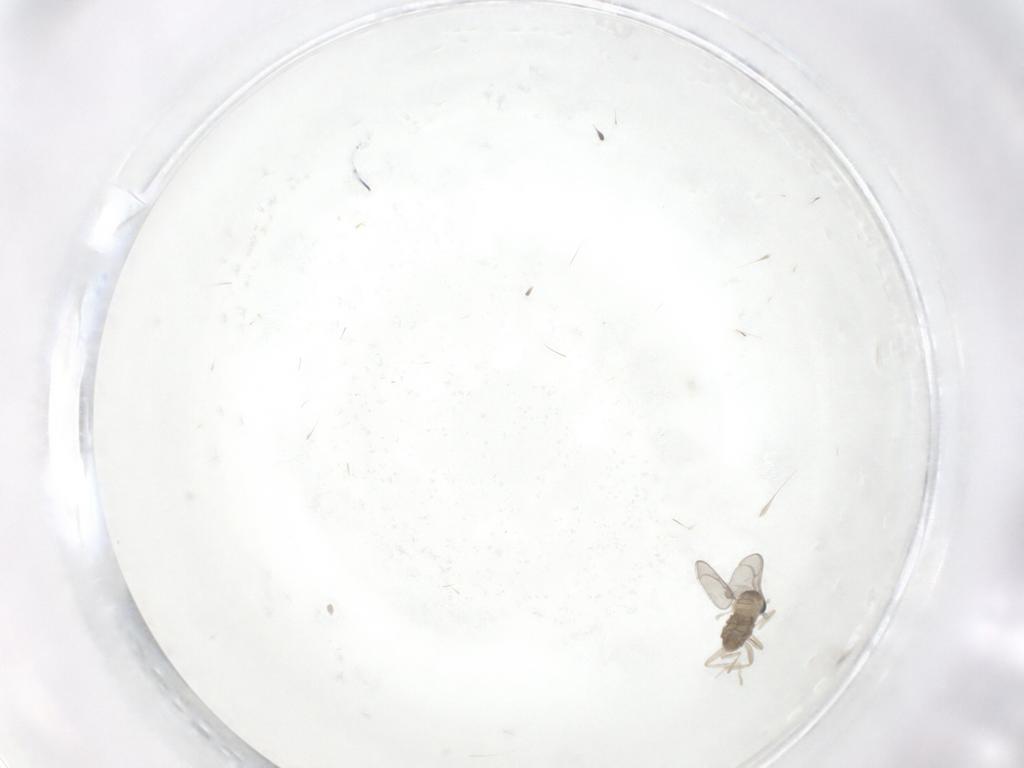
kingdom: Animalia
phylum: Arthropoda
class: Insecta
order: Diptera
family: Cecidomyiidae
